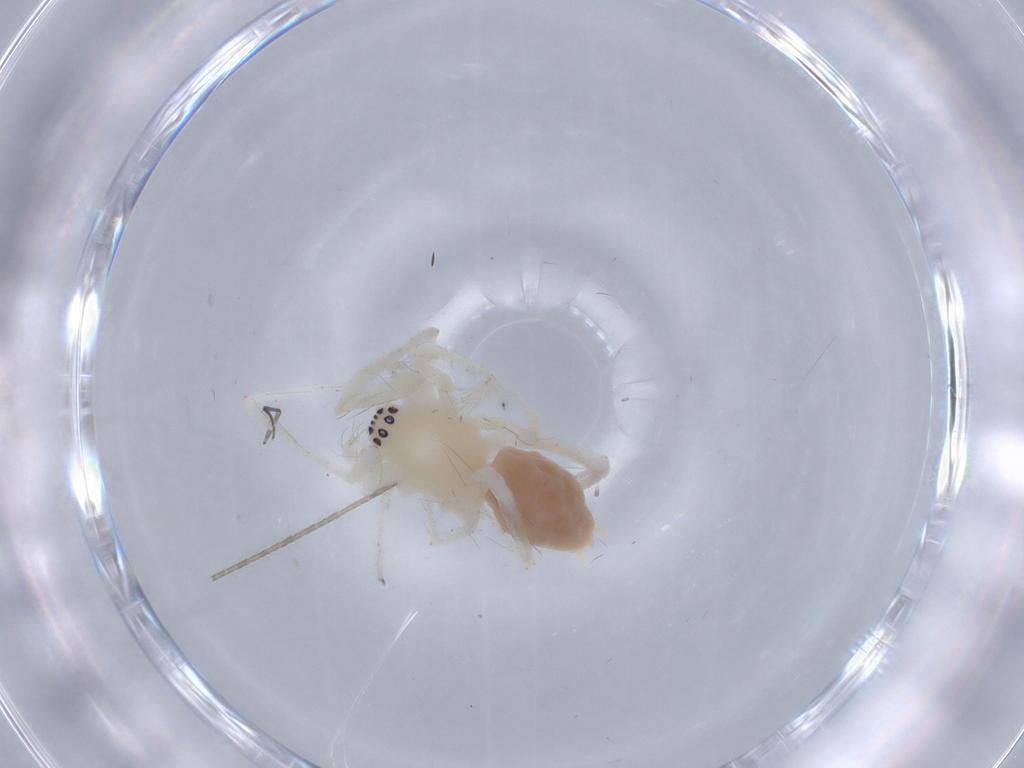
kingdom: Animalia
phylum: Arthropoda
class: Arachnida
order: Araneae
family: Anyphaenidae
